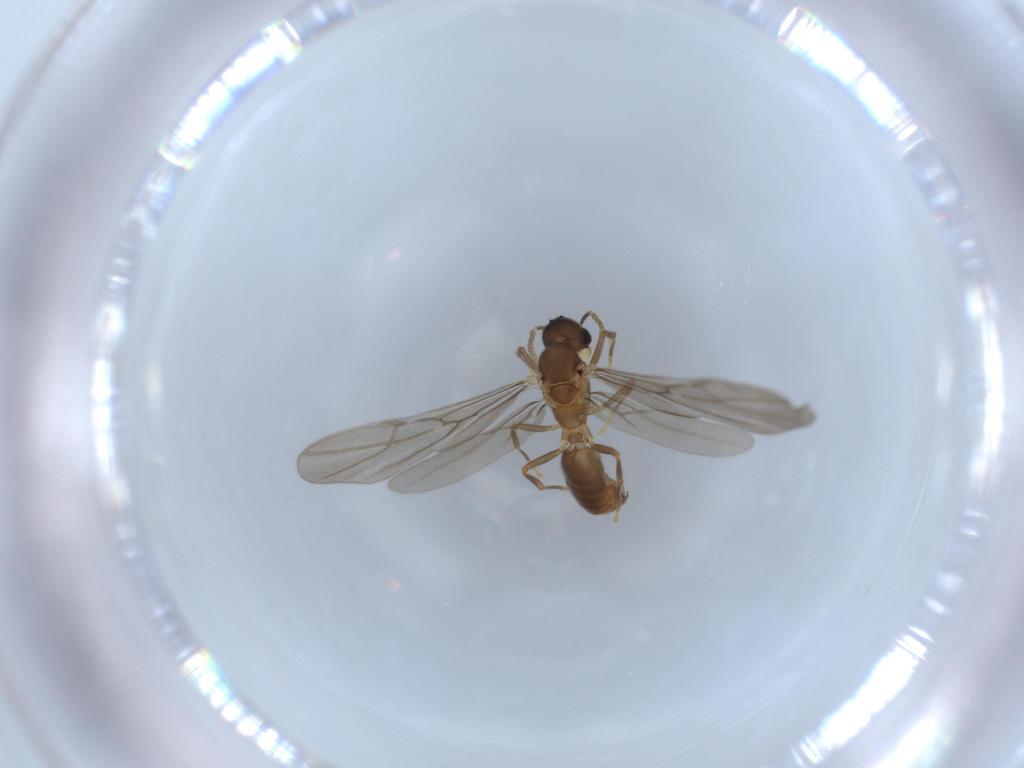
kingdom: Animalia
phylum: Arthropoda
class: Insecta
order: Hymenoptera
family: Formicidae
